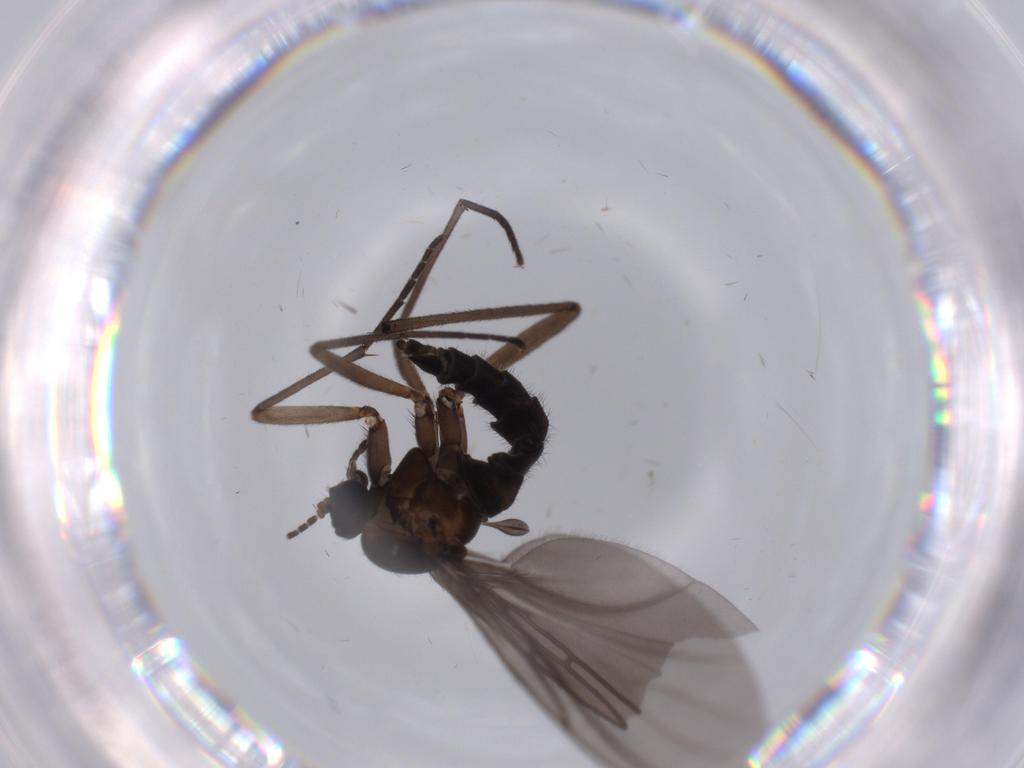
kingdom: Animalia
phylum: Arthropoda
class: Insecta
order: Diptera
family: Sciaridae
